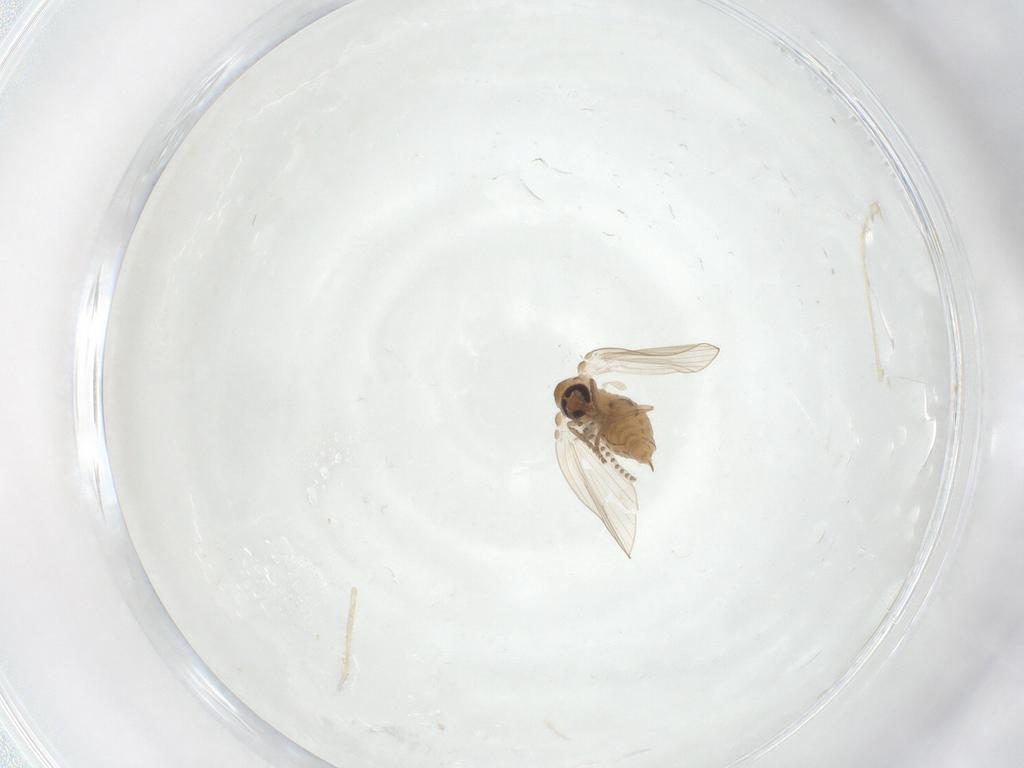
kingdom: Animalia
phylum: Arthropoda
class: Insecta
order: Diptera
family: Psychodidae
